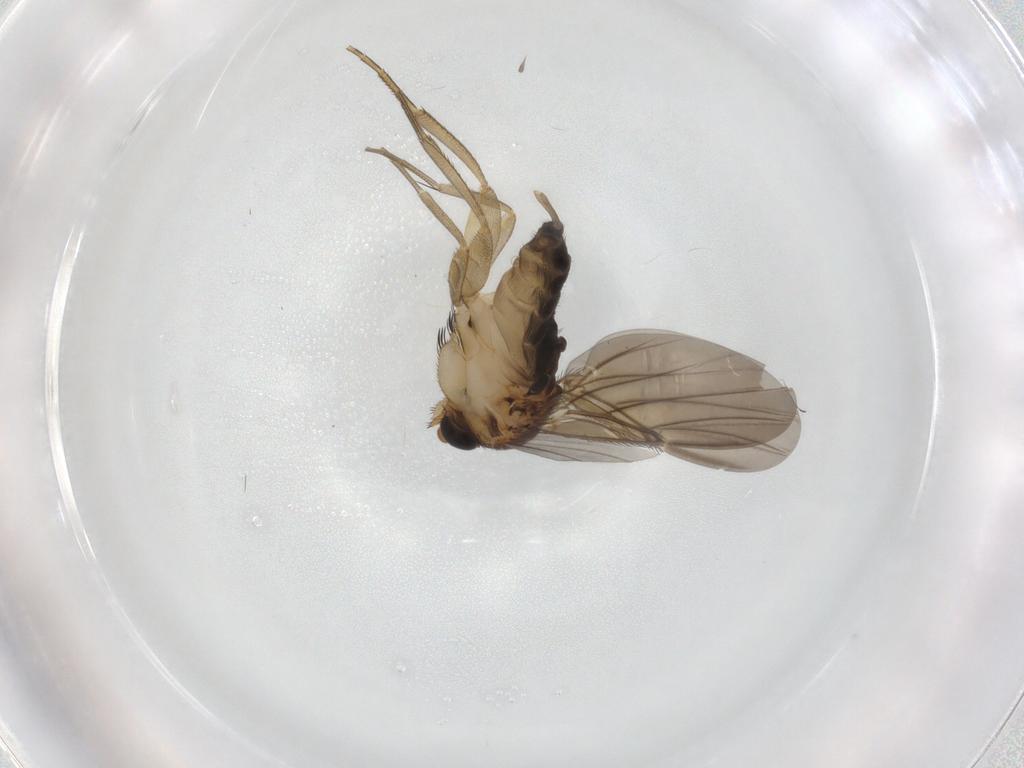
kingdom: Animalia
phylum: Arthropoda
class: Insecta
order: Diptera
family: Phoridae
